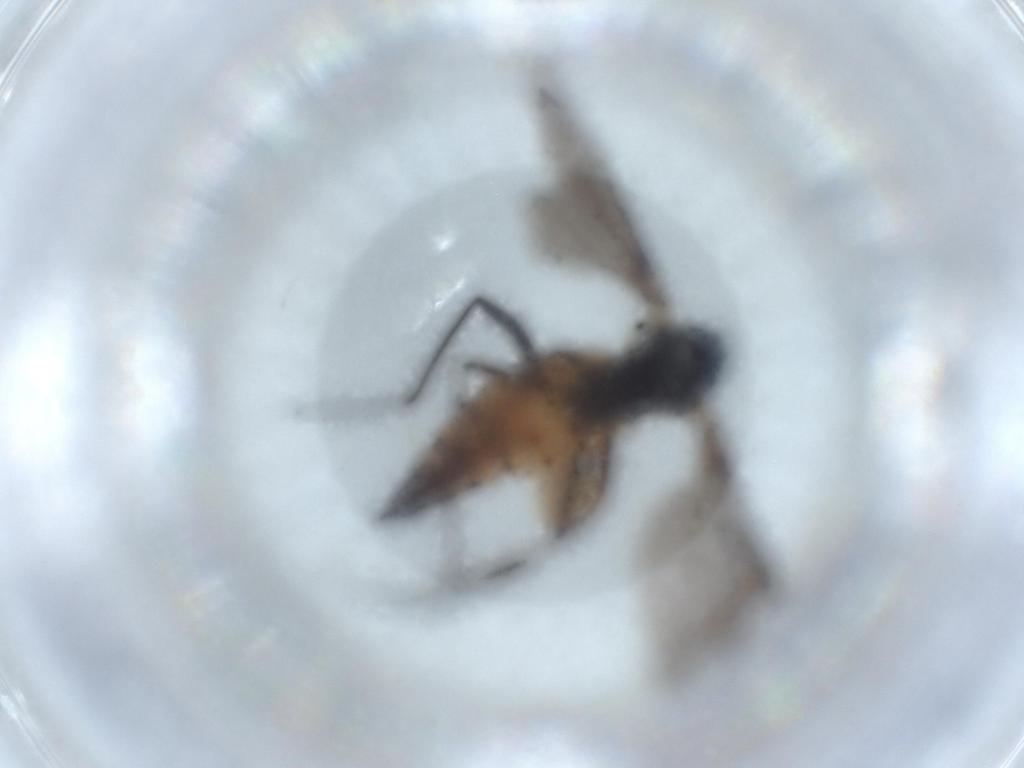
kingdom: Animalia
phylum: Arthropoda
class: Insecta
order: Diptera
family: Sciaridae
